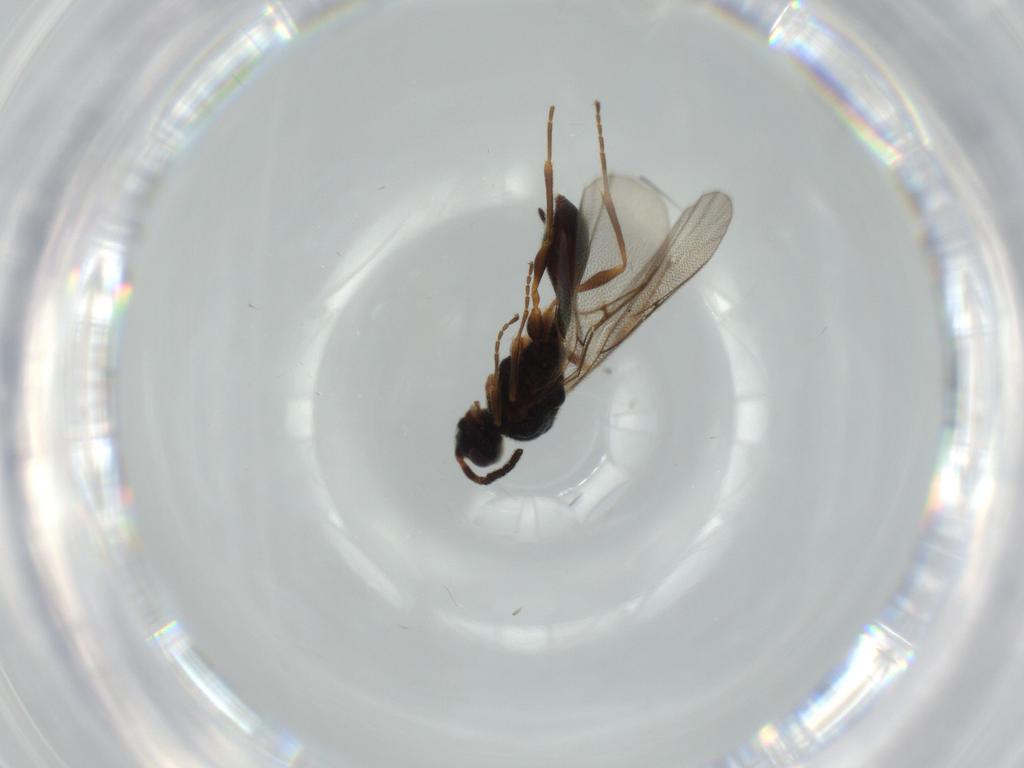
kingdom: Animalia
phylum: Arthropoda
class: Insecta
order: Hymenoptera
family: Diapriidae
